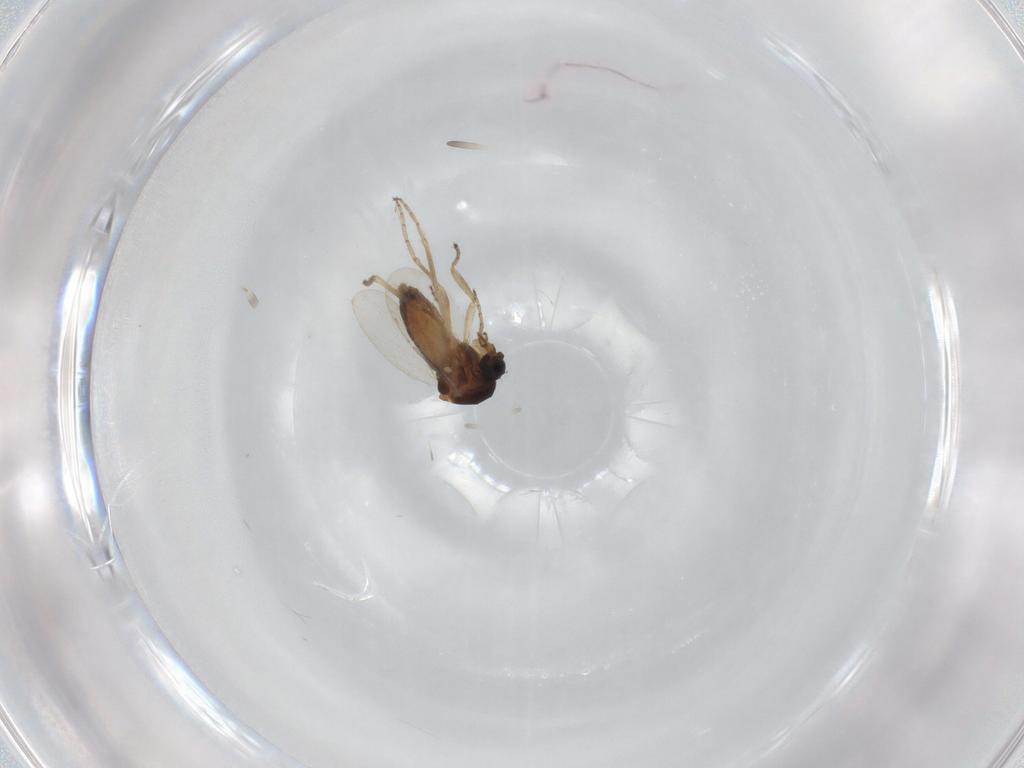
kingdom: Animalia
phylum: Arthropoda
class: Insecta
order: Diptera
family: Ceratopogonidae
